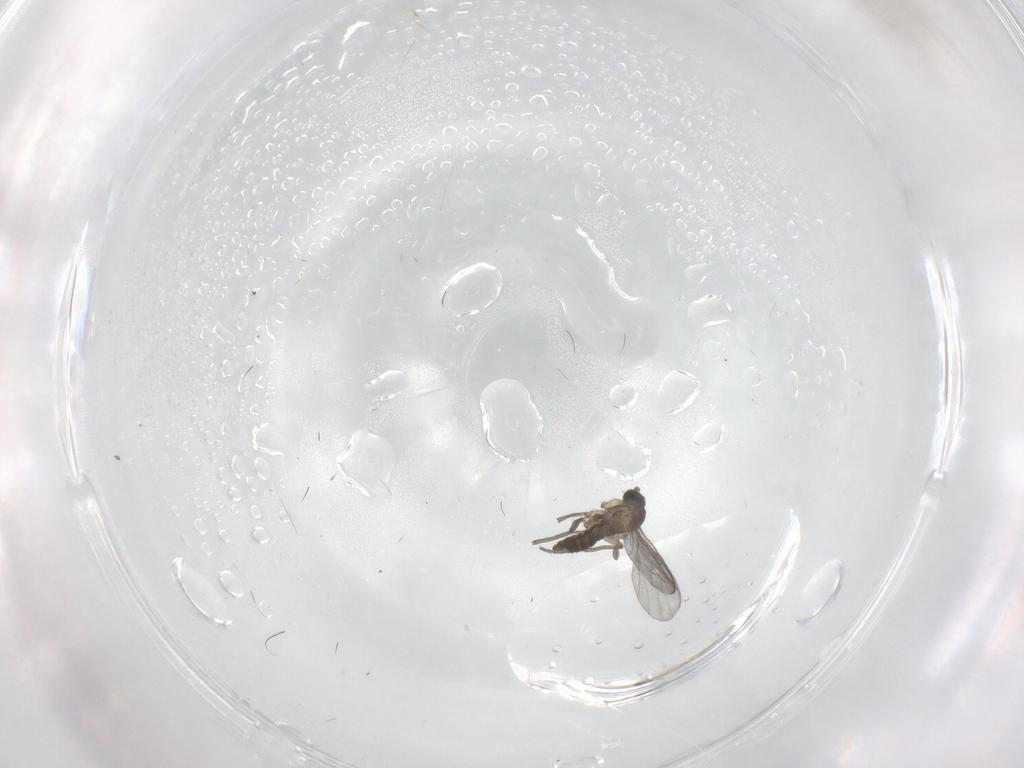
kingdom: Animalia
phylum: Arthropoda
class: Insecta
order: Diptera
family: Sciaridae
